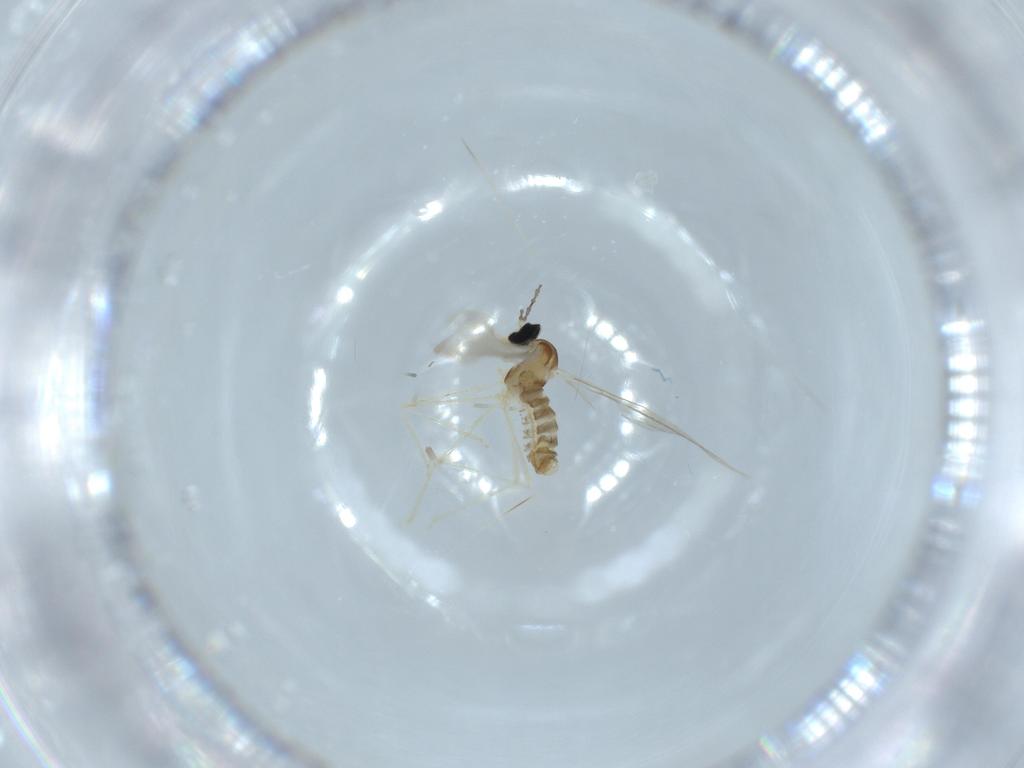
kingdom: Animalia
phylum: Arthropoda
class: Insecta
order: Diptera
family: Cecidomyiidae
